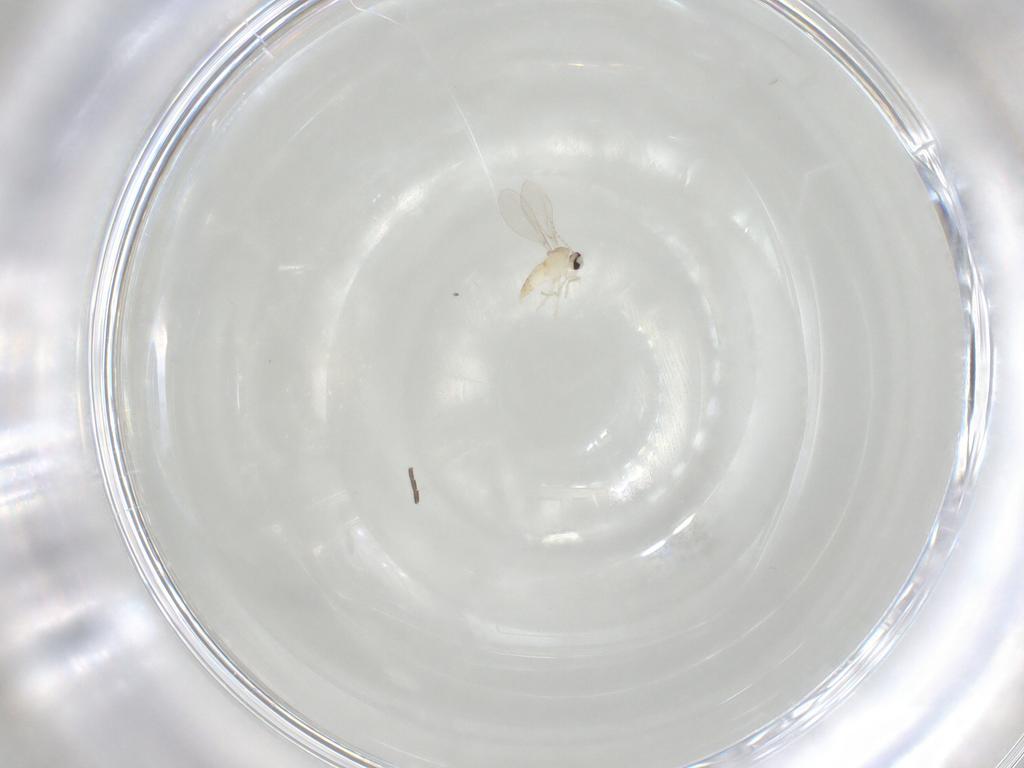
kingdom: Animalia
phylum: Arthropoda
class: Insecta
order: Diptera
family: Cecidomyiidae
